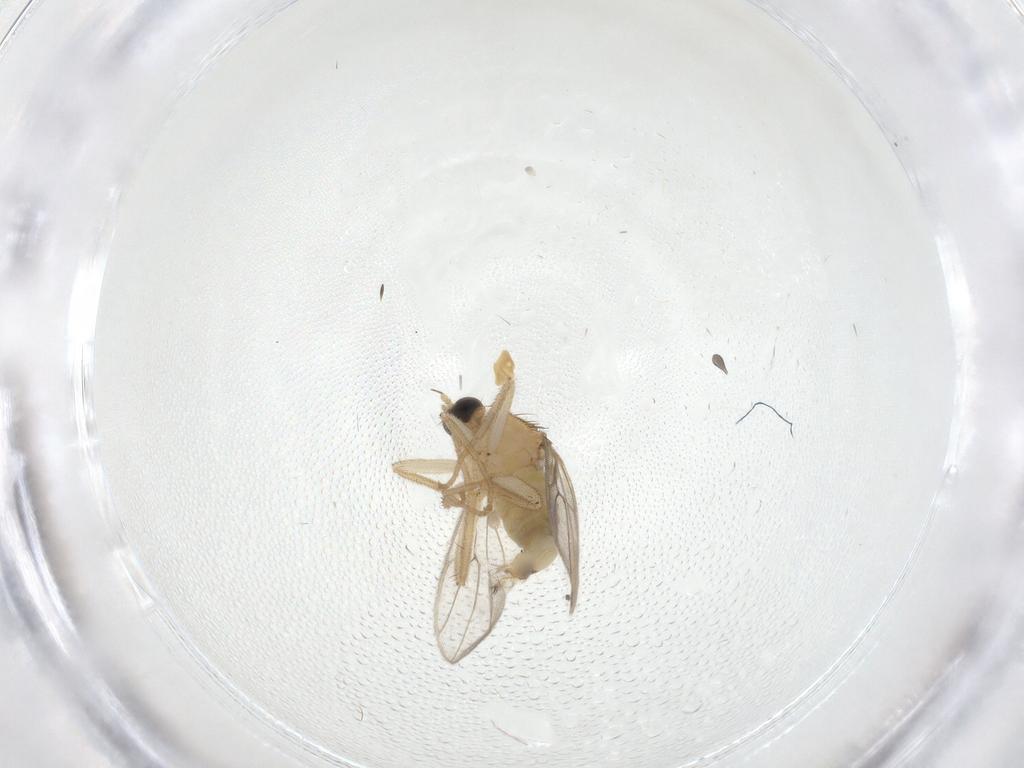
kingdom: Animalia
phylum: Arthropoda
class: Insecta
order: Diptera
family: Hybotidae
